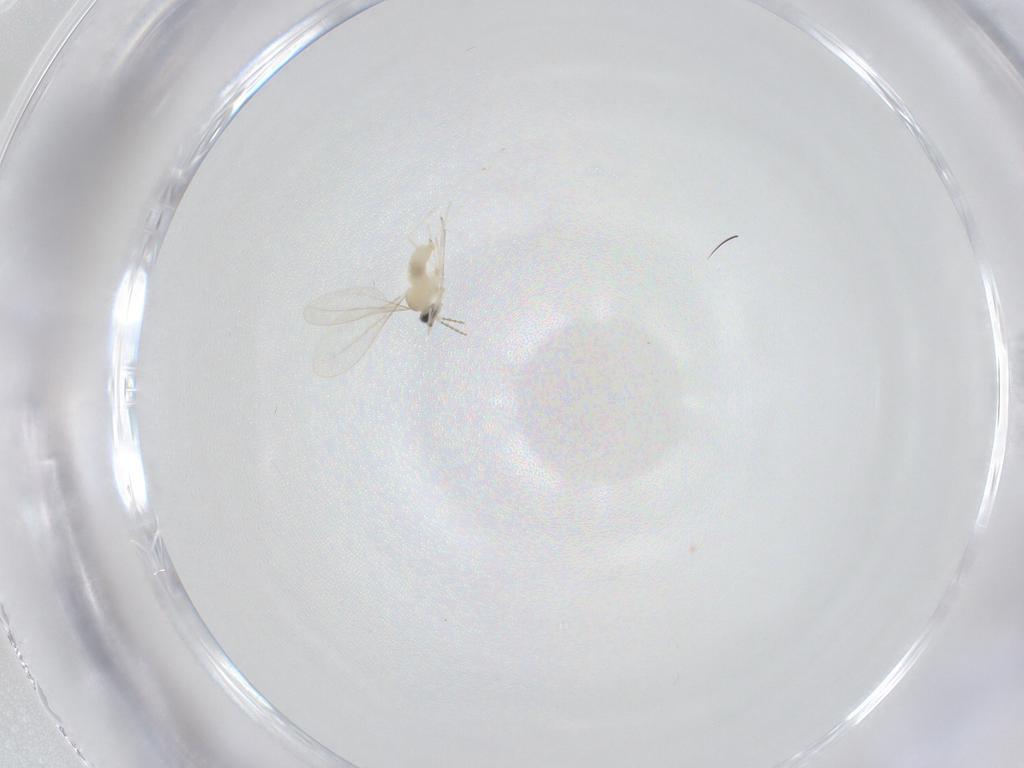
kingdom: Animalia
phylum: Arthropoda
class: Insecta
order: Diptera
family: Cecidomyiidae
